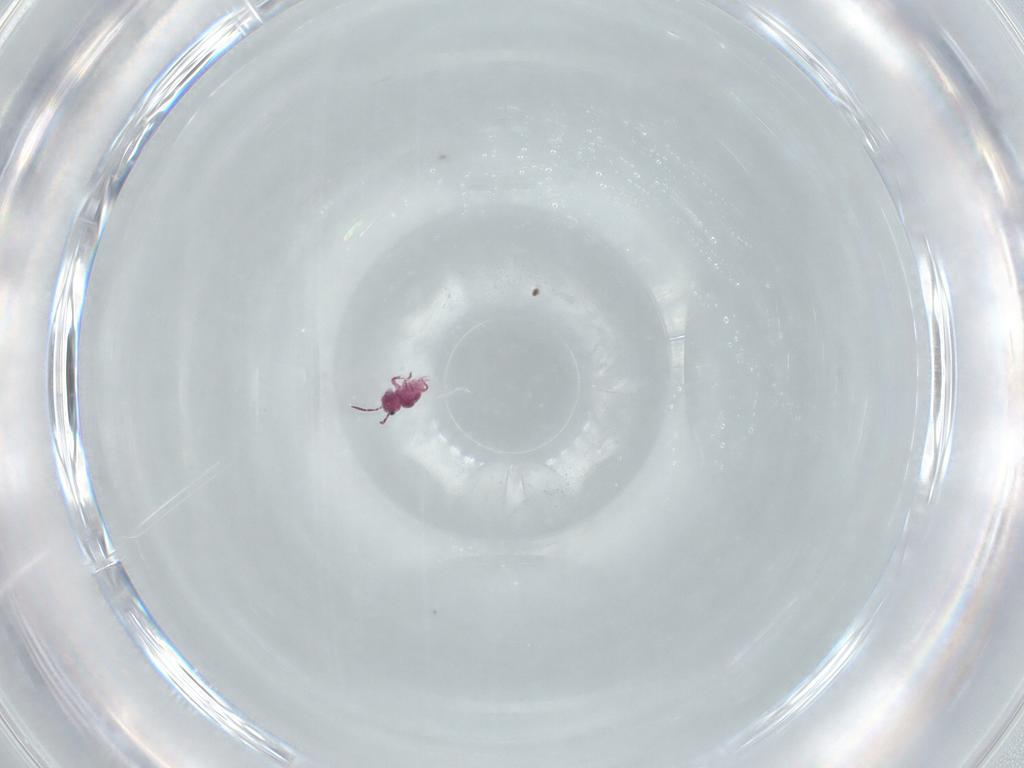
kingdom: Animalia
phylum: Arthropoda
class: Collembola
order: Symphypleona
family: Sminthurididae
